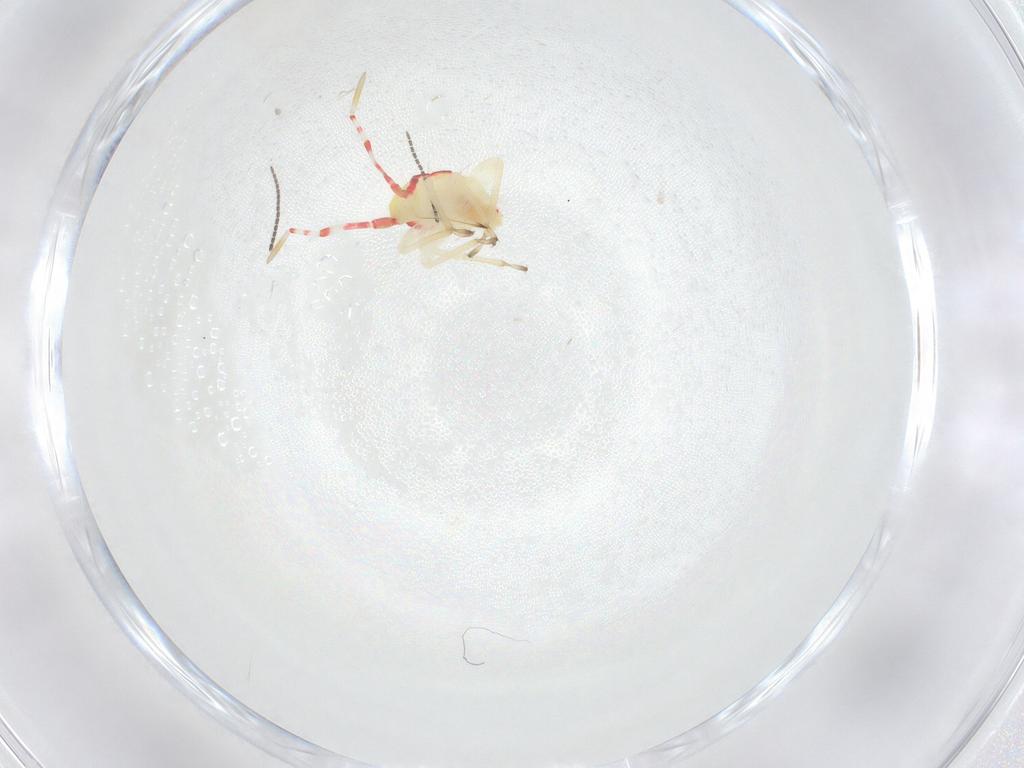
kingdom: Animalia
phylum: Arthropoda
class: Insecta
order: Hemiptera
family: Miridae
